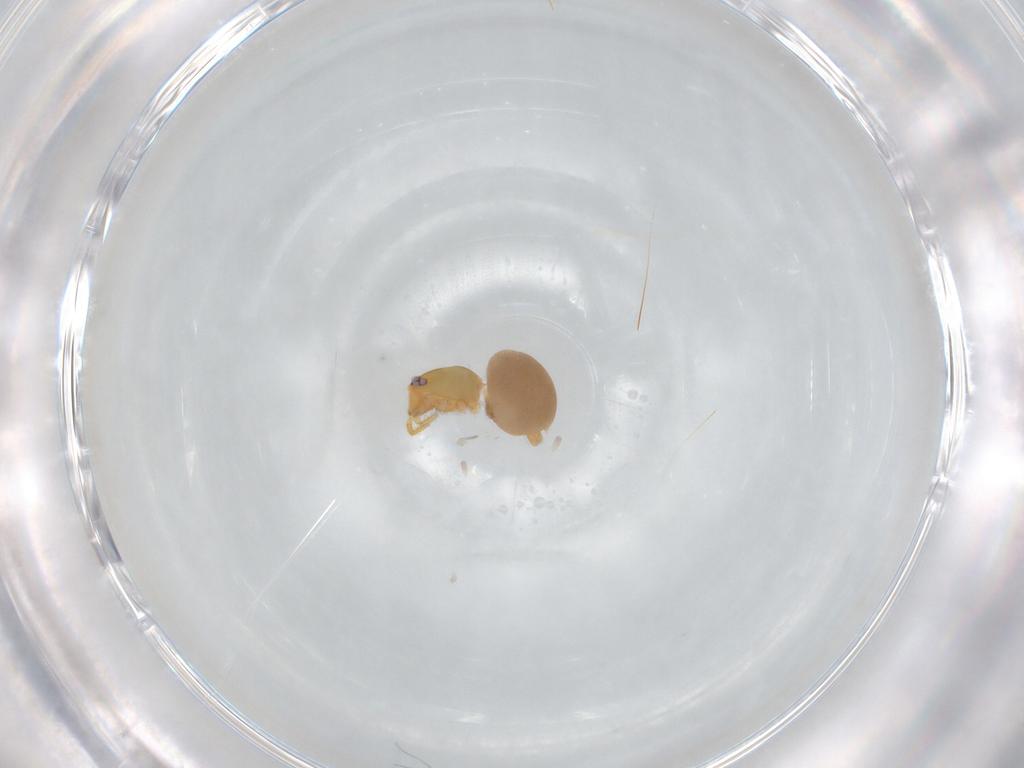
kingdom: Animalia
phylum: Arthropoda
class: Arachnida
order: Araneae
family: Oonopidae
